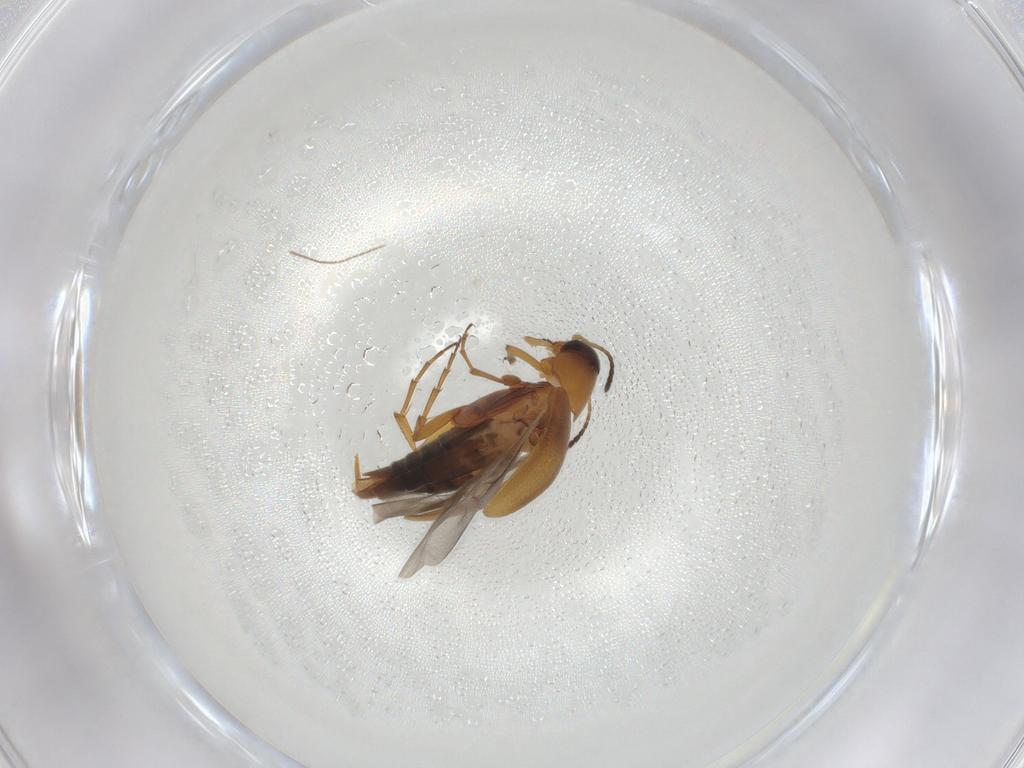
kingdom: Animalia
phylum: Arthropoda
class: Insecta
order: Coleoptera
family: Scraptiidae
